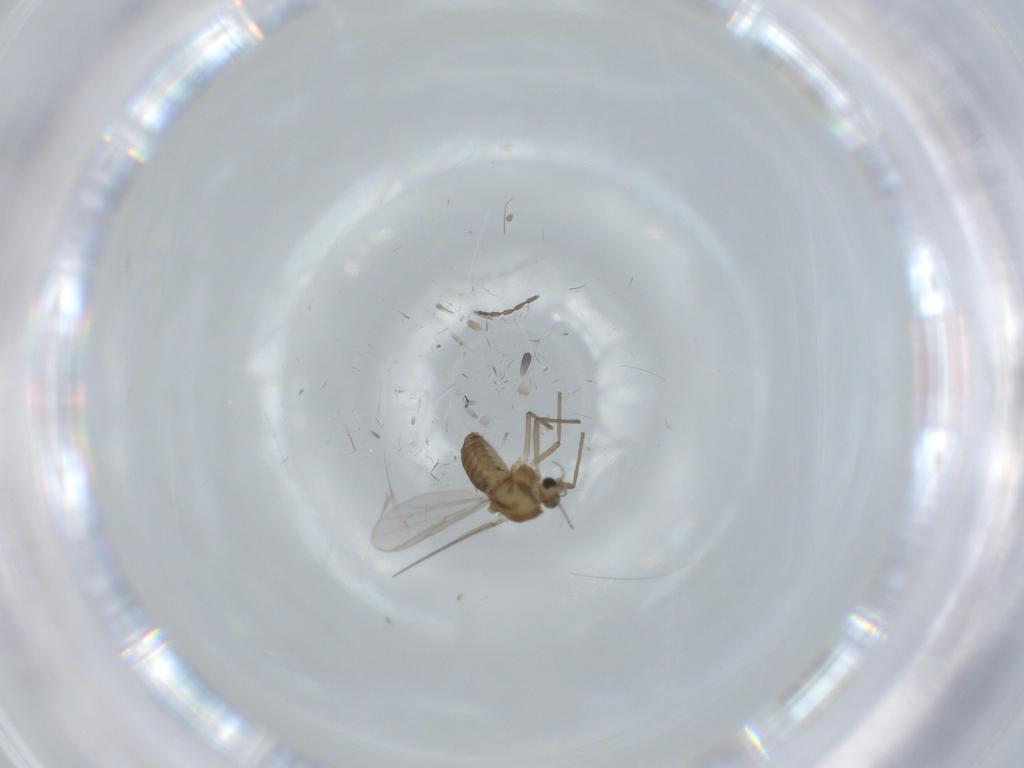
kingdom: Animalia
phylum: Arthropoda
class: Insecta
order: Diptera
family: Chironomidae
